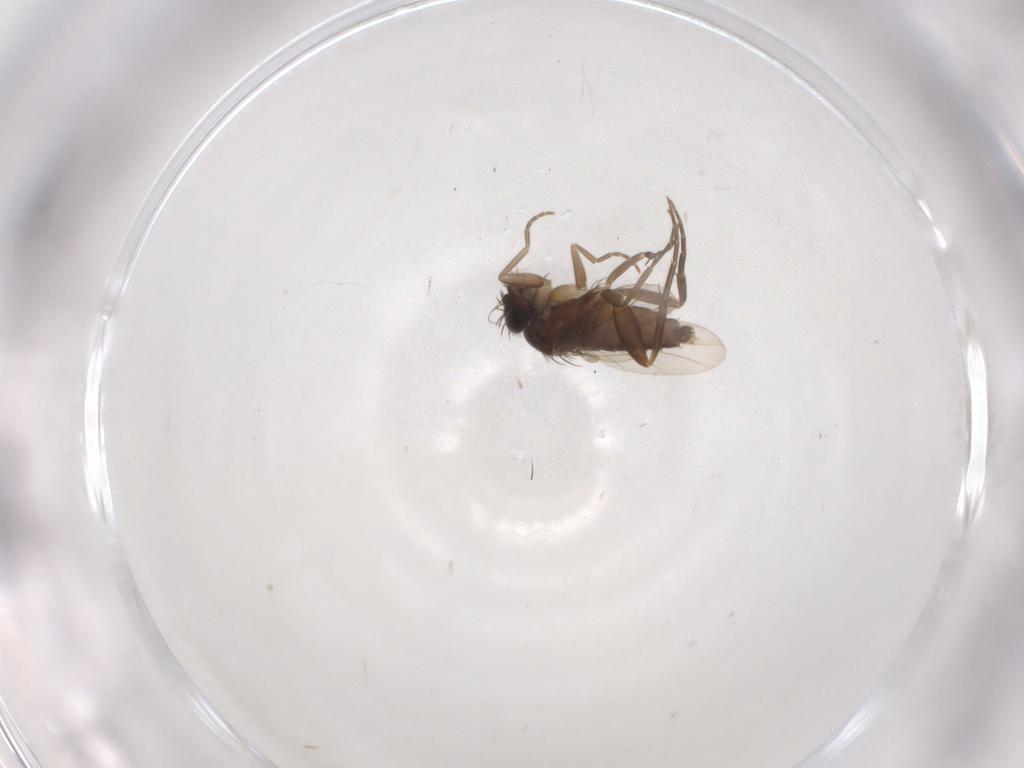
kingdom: Animalia
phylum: Arthropoda
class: Insecta
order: Diptera
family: Phoridae
